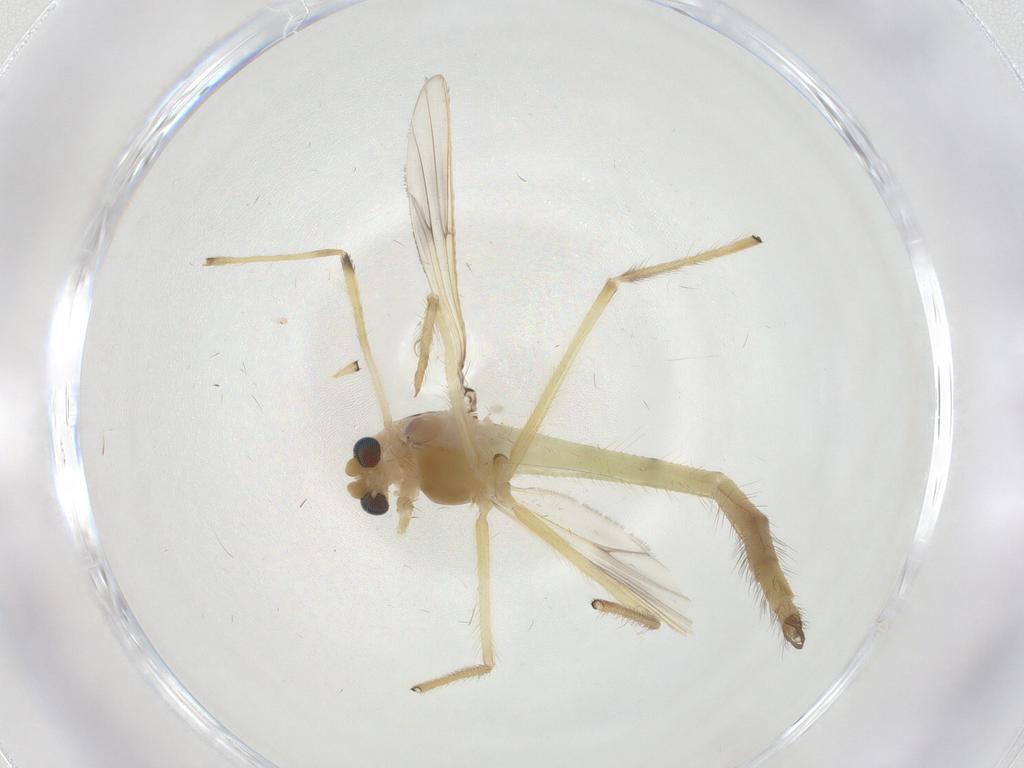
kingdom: Animalia
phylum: Arthropoda
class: Insecta
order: Diptera
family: Chironomidae
